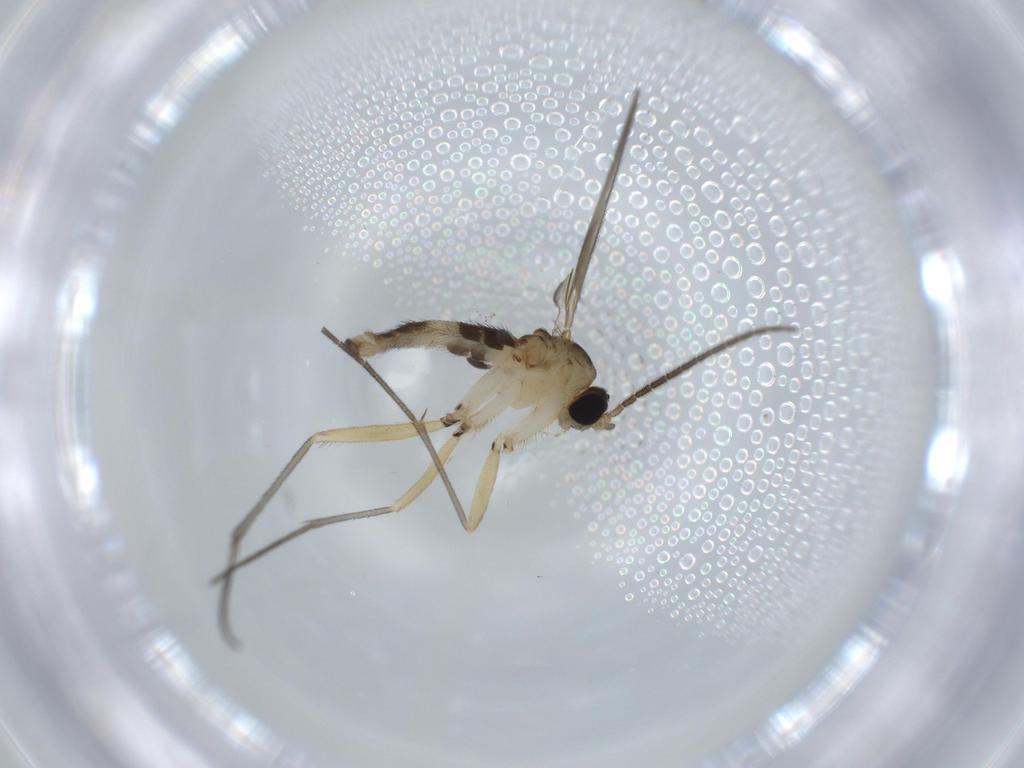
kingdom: Animalia
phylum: Arthropoda
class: Insecta
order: Diptera
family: Sciaridae
